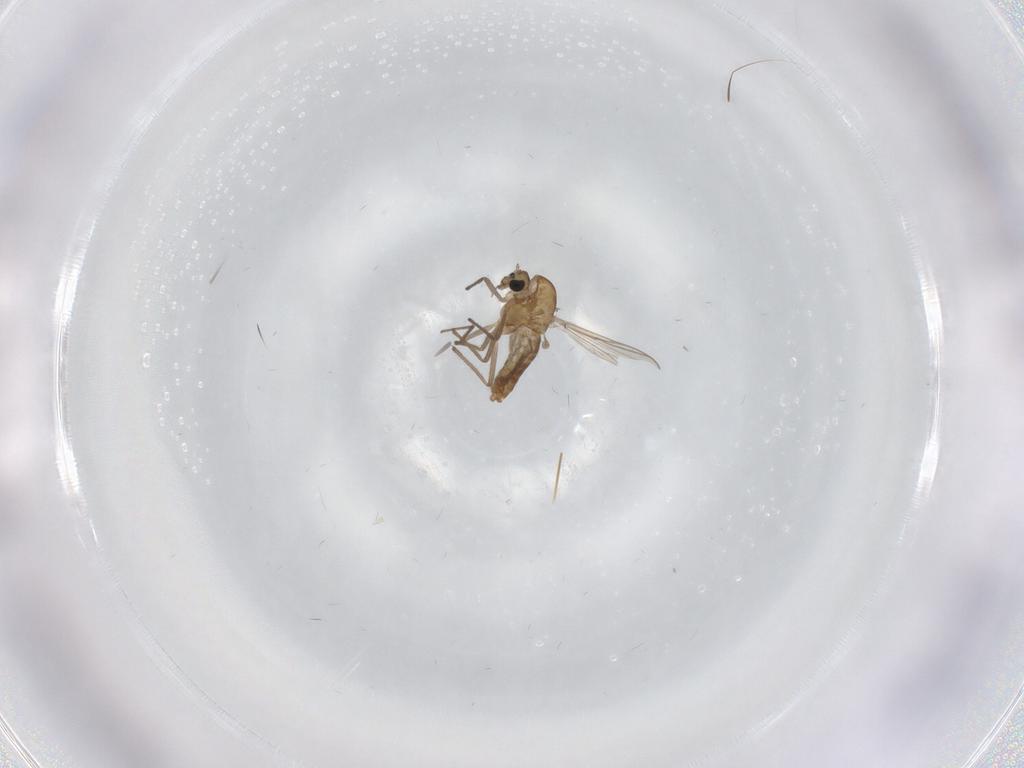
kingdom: Animalia
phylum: Arthropoda
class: Insecta
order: Diptera
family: Chironomidae
